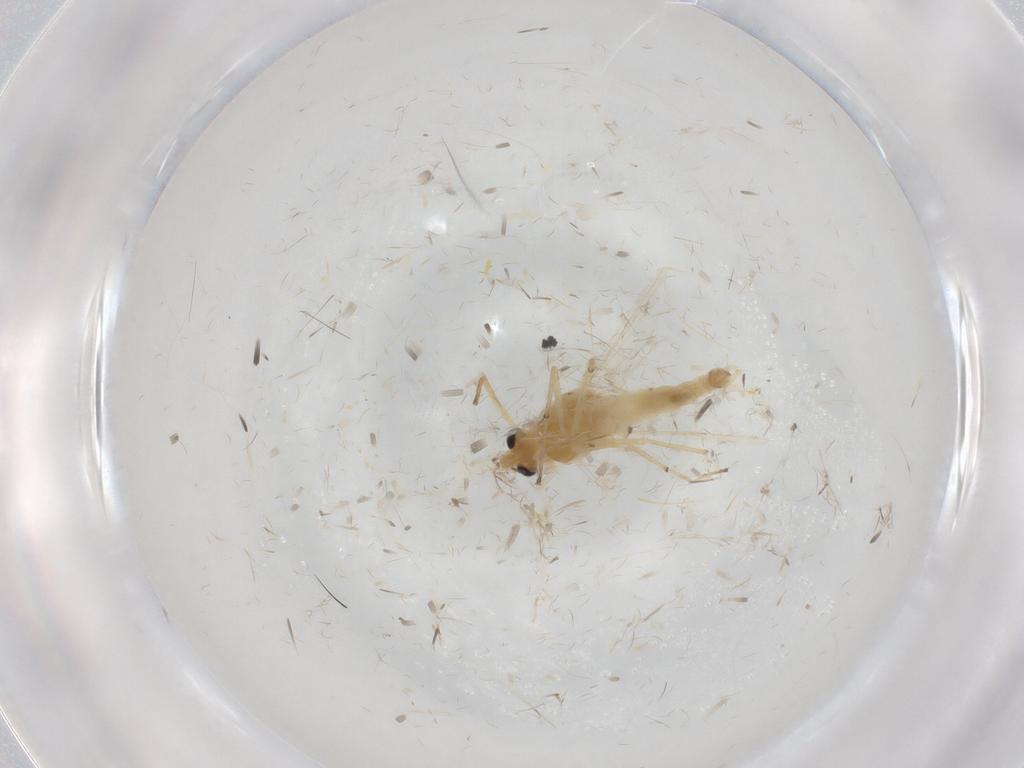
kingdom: Animalia
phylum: Arthropoda
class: Insecta
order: Diptera
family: Chironomidae
